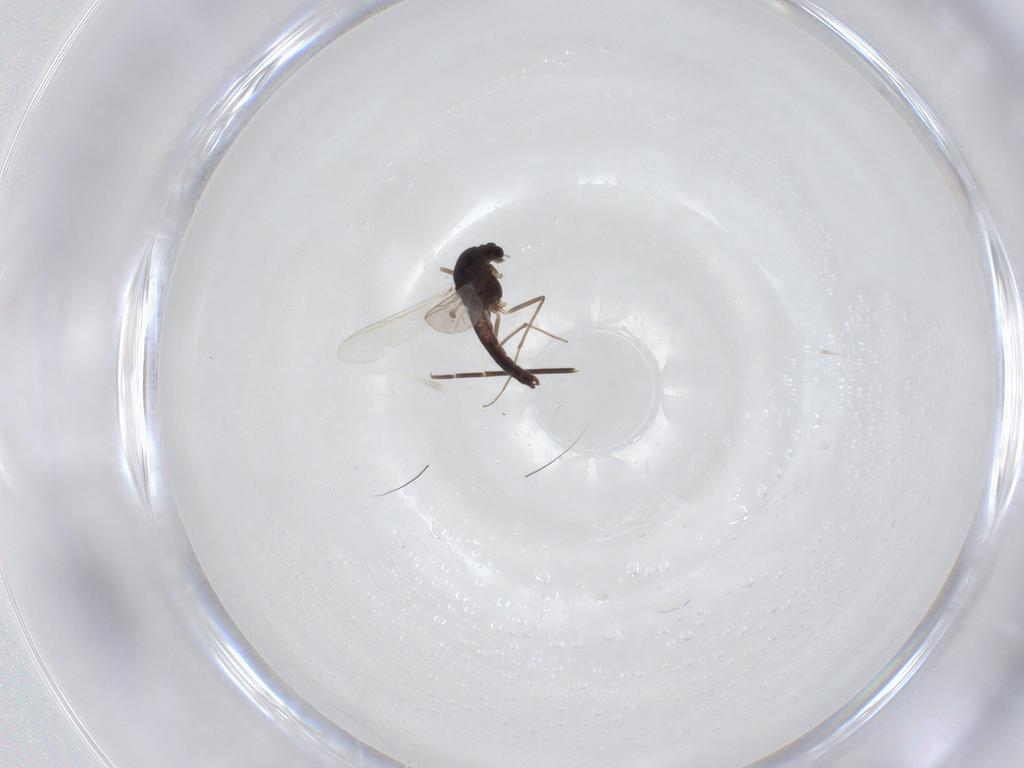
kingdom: Animalia
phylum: Arthropoda
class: Insecta
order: Diptera
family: Chironomidae
